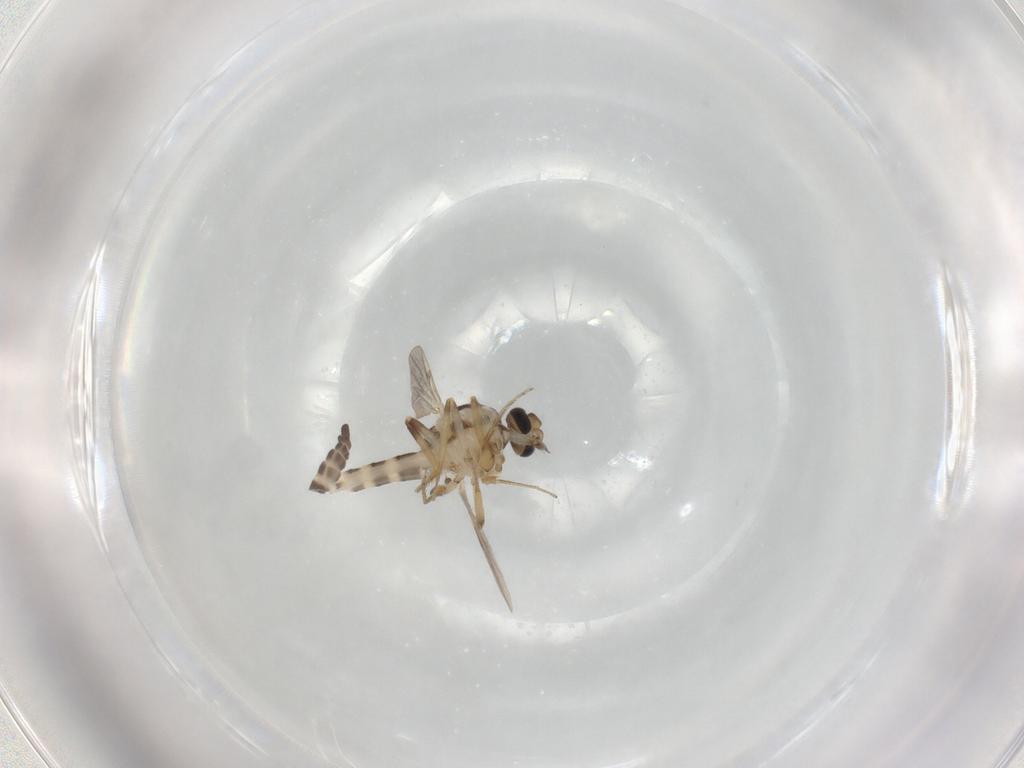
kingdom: Animalia
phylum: Arthropoda
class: Insecta
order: Diptera
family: Ceratopogonidae
